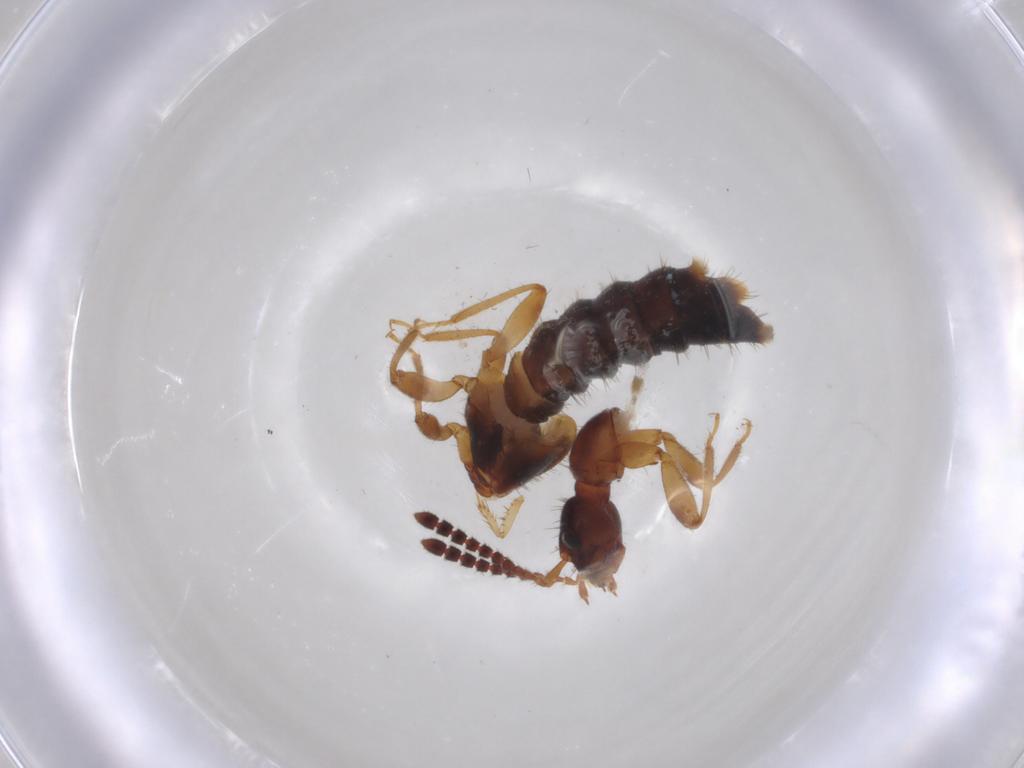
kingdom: Animalia
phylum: Arthropoda
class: Insecta
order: Coleoptera
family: Staphylinidae
